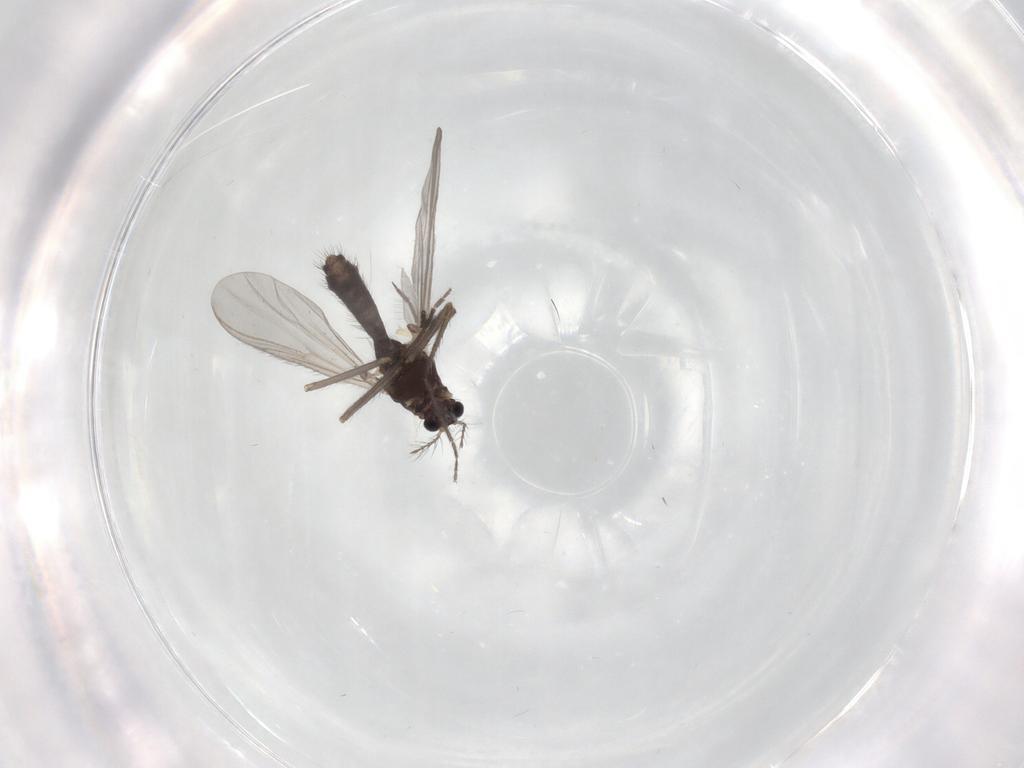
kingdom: Animalia
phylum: Arthropoda
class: Insecta
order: Diptera
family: Chironomidae
